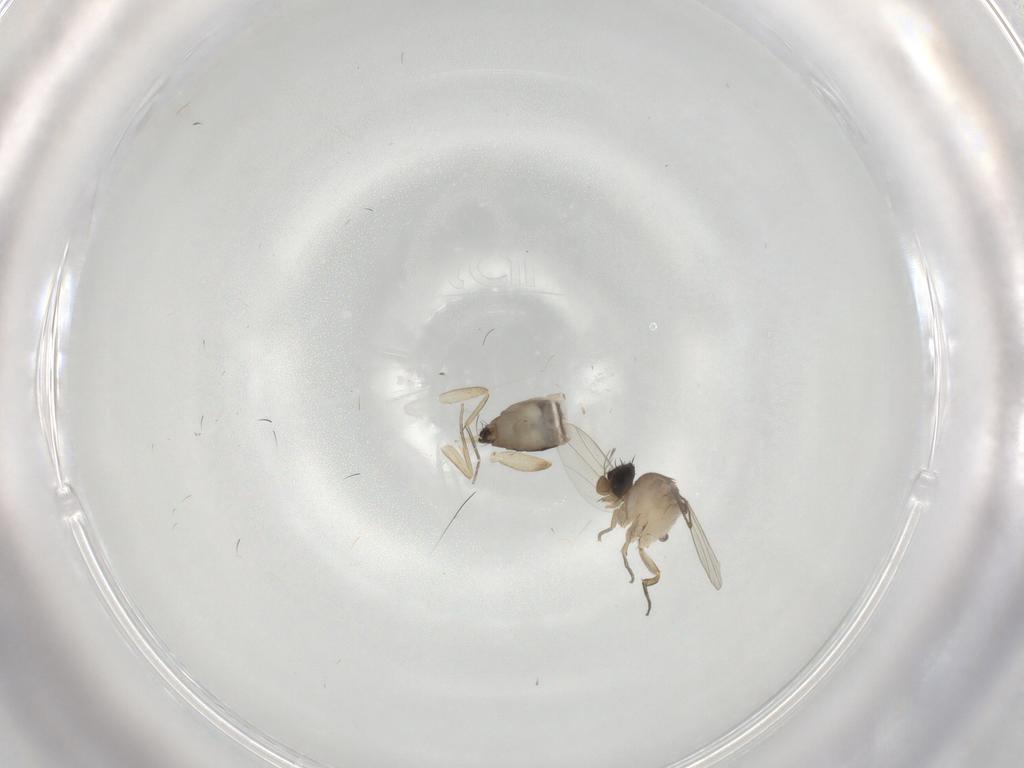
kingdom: Animalia
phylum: Arthropoda
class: Insecta
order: Diptera
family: Phoridae
